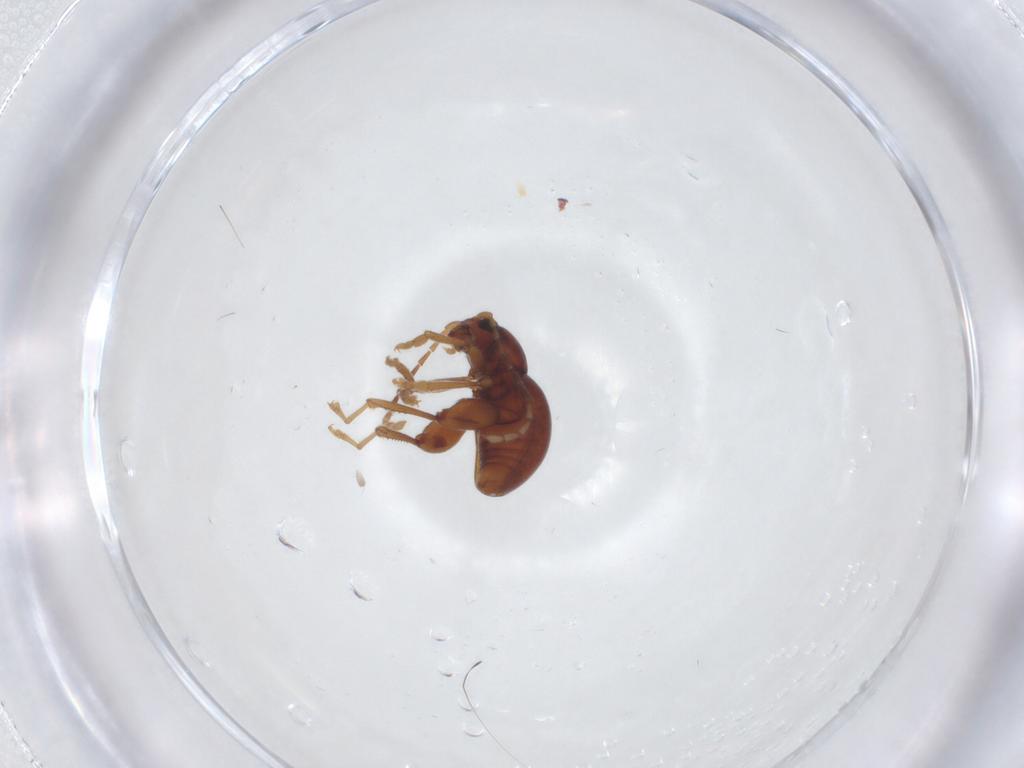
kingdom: Animalia
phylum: Arthropoda
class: Insecta
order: Coleoptera
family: Chrysomelidae
